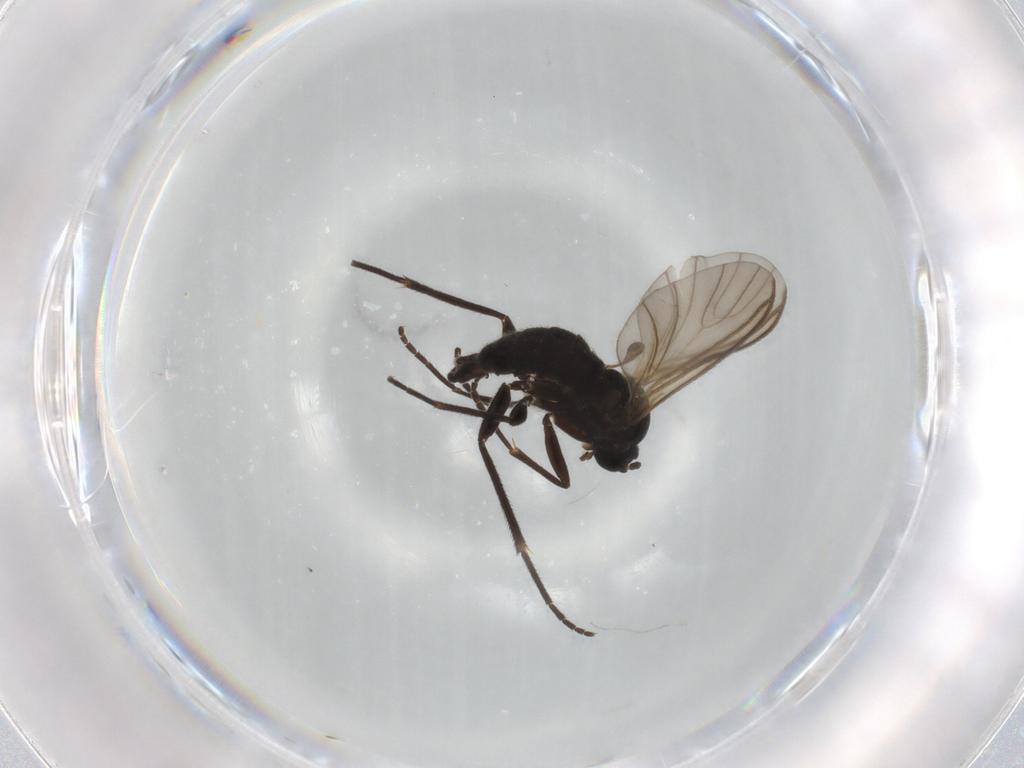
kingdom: Animalia
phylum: Arthropoda
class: Insecta
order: Diptera
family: Sciaridae
